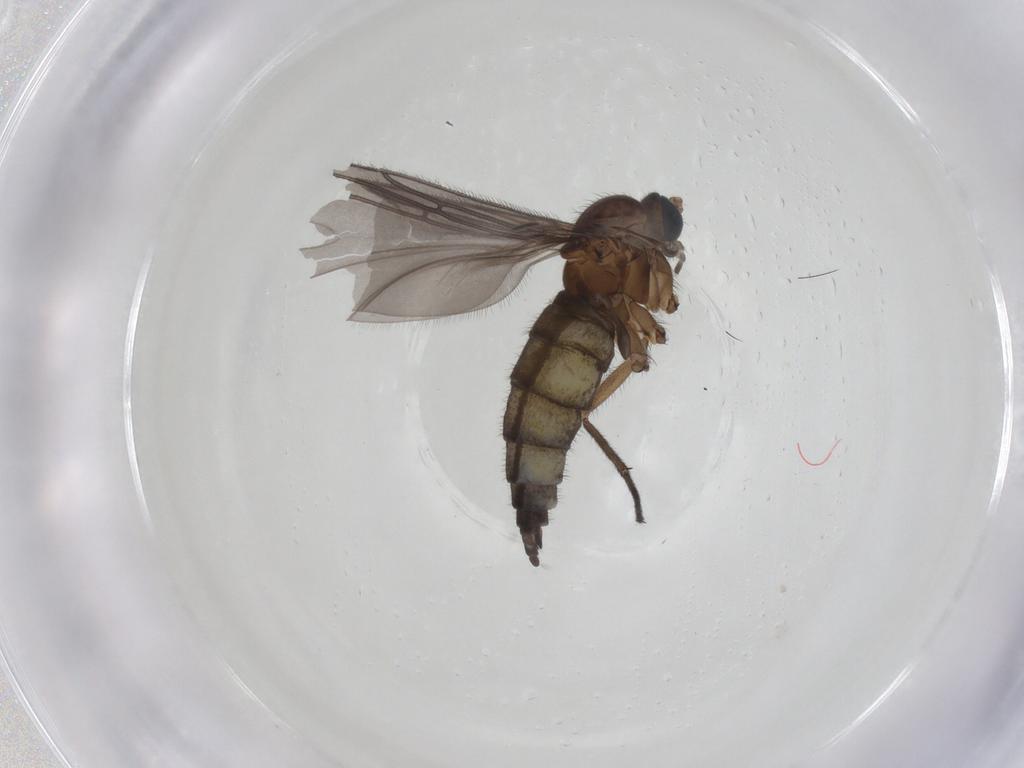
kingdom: Animalia
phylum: Arthropoda
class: Insecta
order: Diptera
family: Sciaridae
